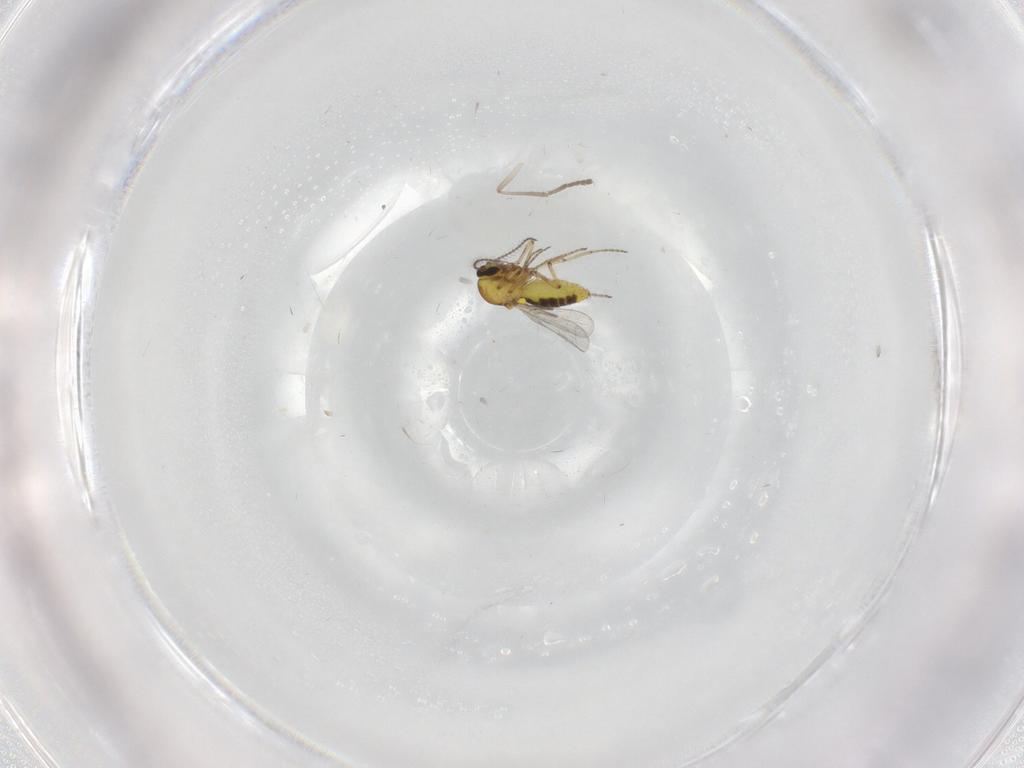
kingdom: Animalia
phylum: Arthropoda
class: Insecta
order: Diptera
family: Psychodidae
